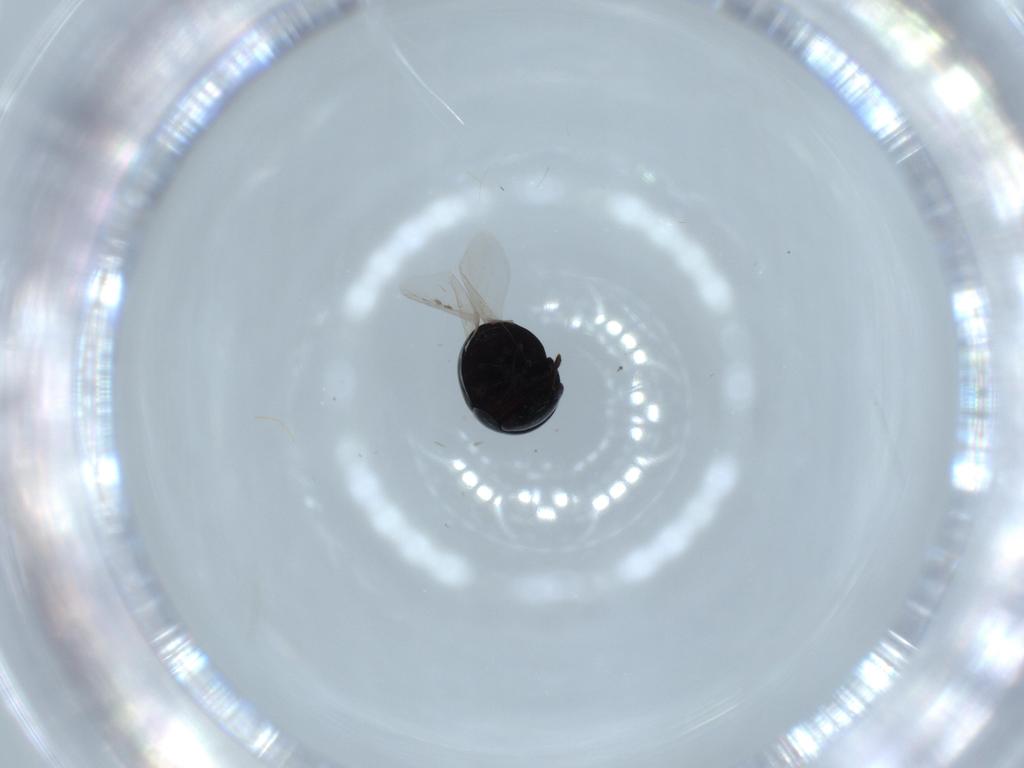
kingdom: Animalia
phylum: Arthropoda
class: Insecta
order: Coleoptera
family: Cybocephalidae
